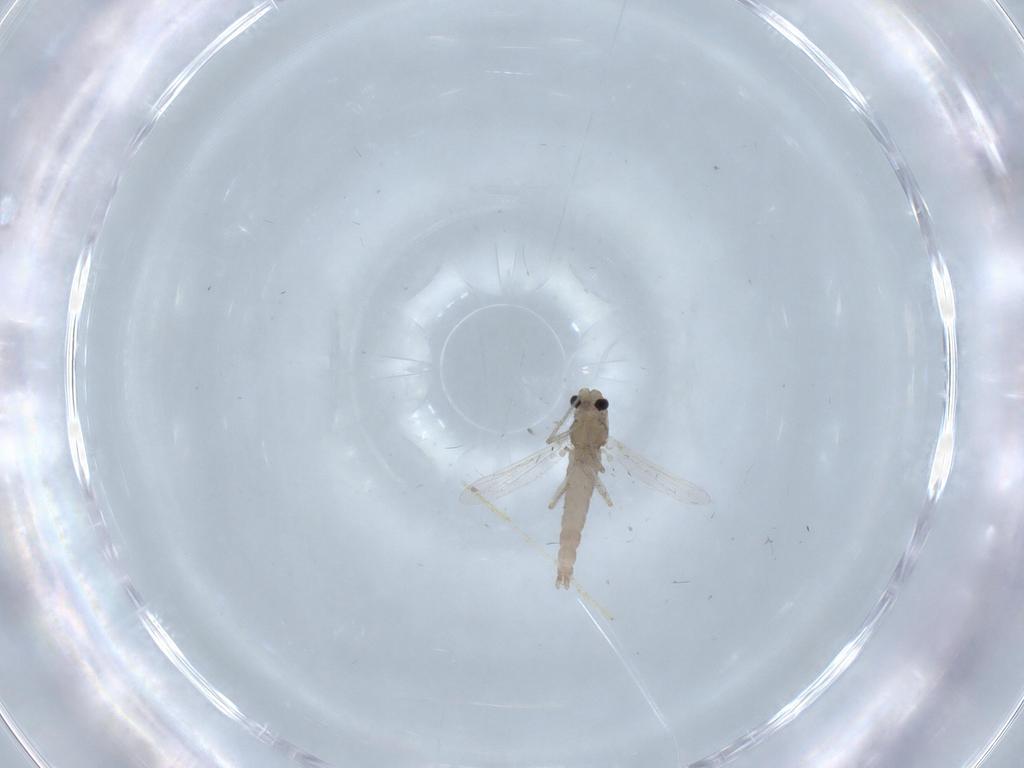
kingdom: Animalia
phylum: Arthropoda
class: Insecta
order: Diptera
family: Chironomidae
